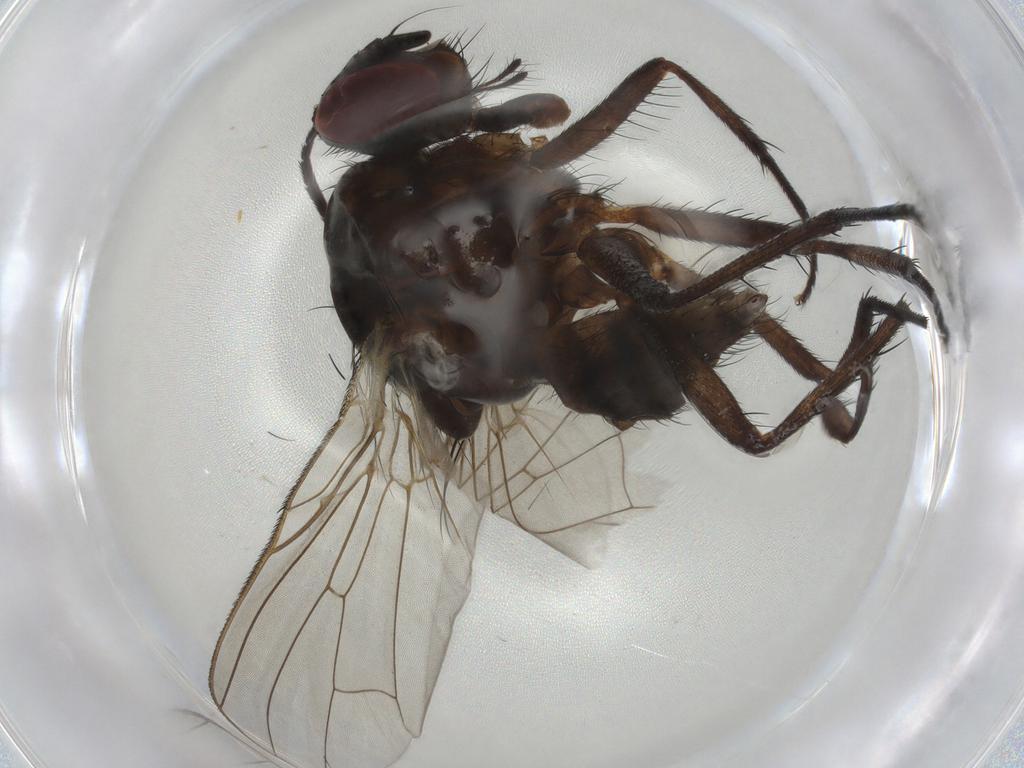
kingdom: Animalia
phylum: Arthropoda
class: Insecta
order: Diptera
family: Anthomyiidae
